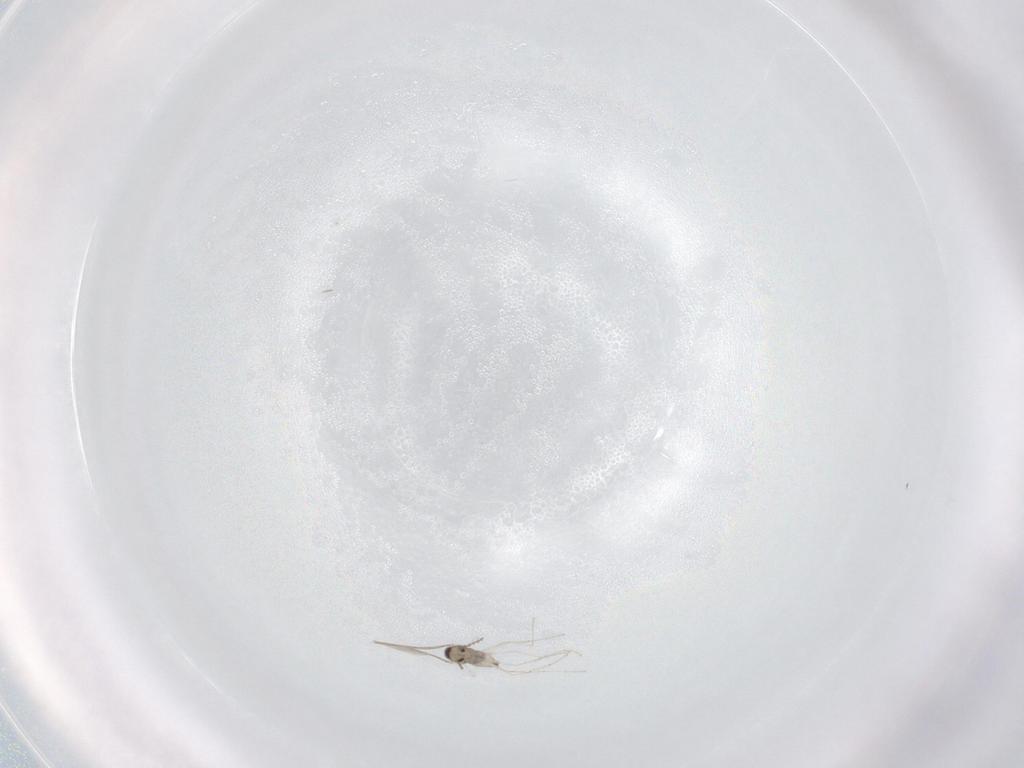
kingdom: Animalia
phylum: Arthropoda
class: Insecta
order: Diptera
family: Cecidomyiidae
